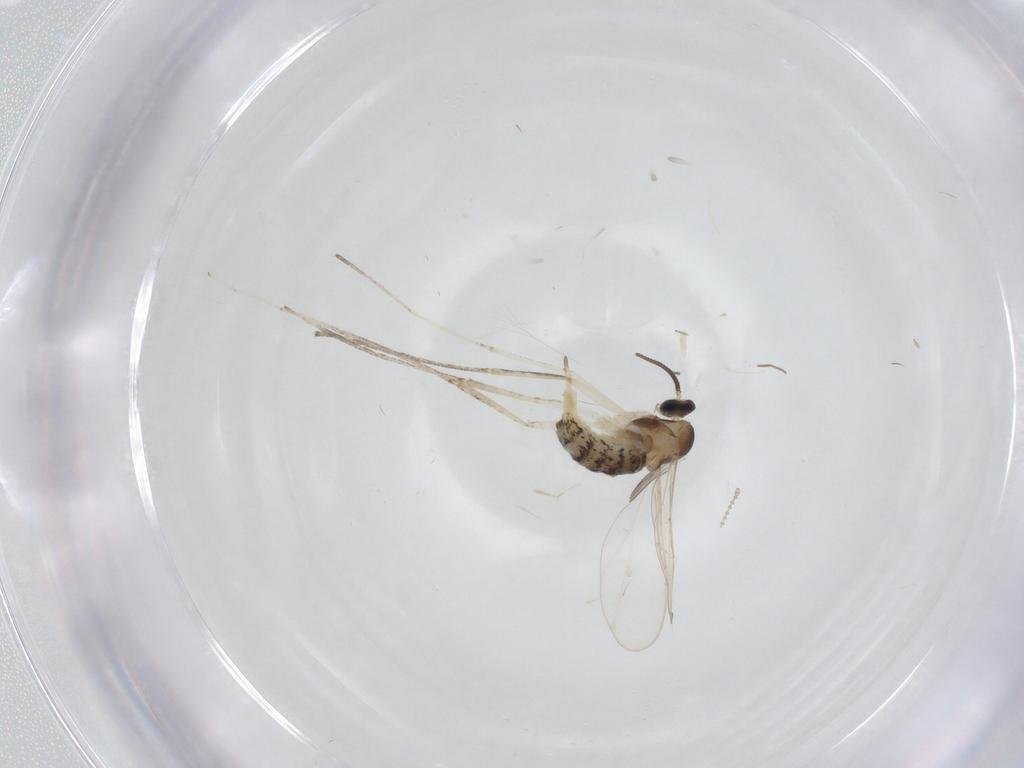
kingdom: Animalia
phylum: Arthropoda
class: Insecta
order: Diptera
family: Cecidomyiidae
